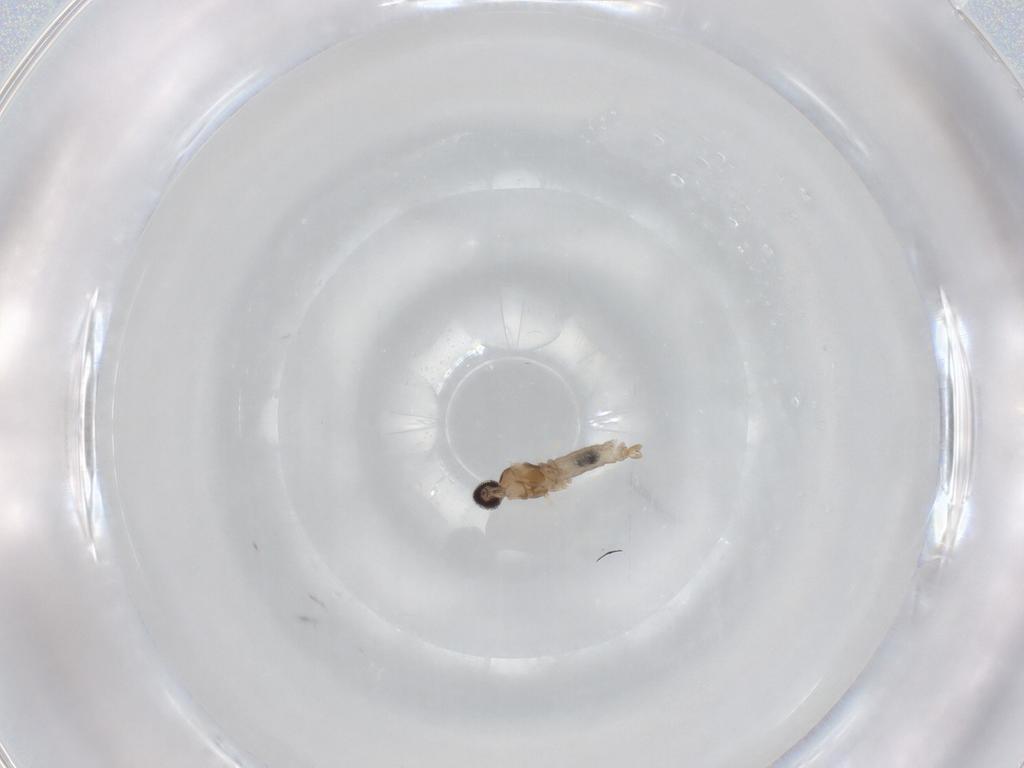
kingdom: Animalia
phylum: Arthropoda
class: Insecta
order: Diptera
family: Cecidomyiidae
